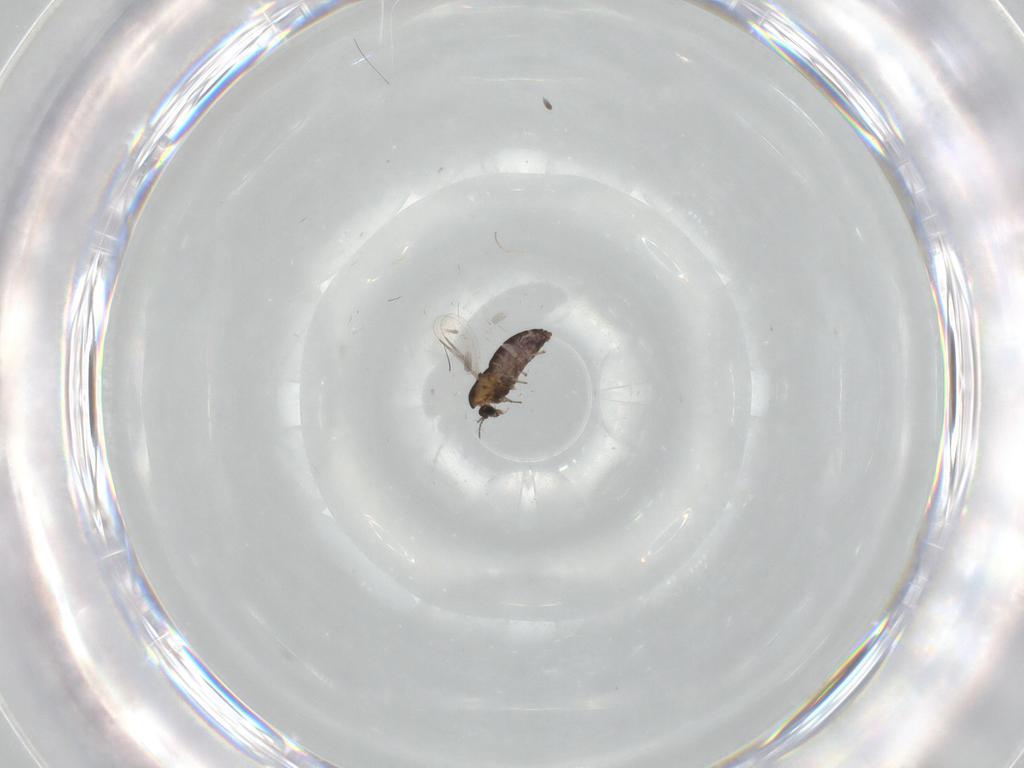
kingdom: Animalia
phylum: Arthropoda
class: Insecta
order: Diptera
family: Chironomidae
